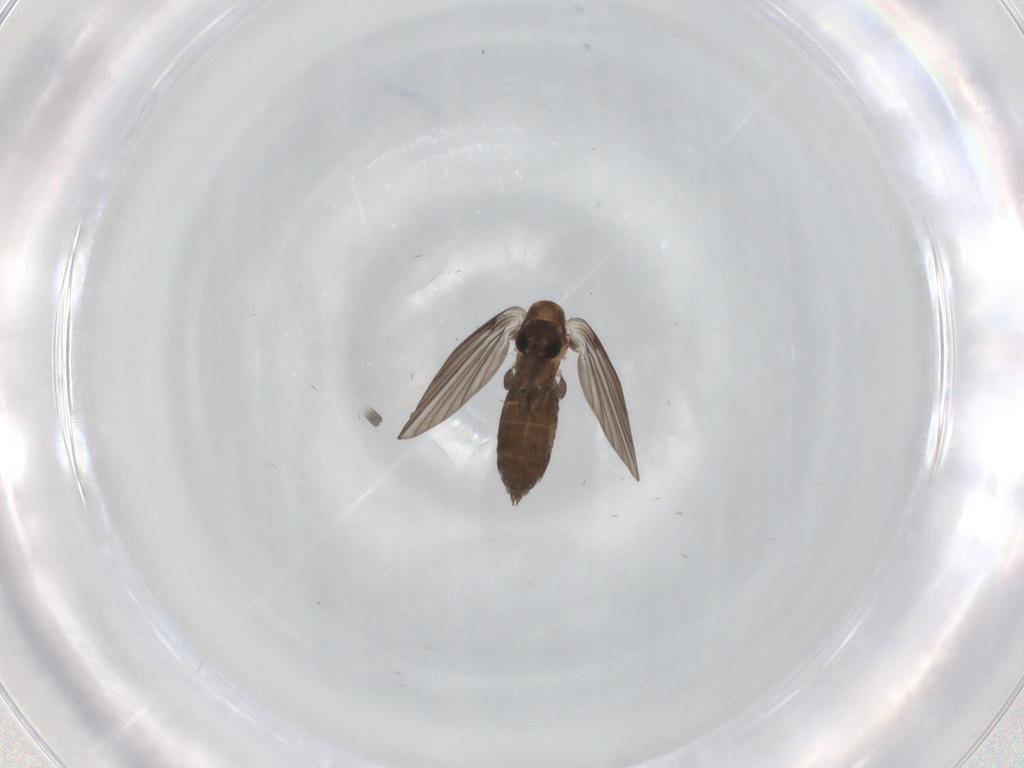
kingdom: Animalia
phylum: Arthropoda
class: Insecta
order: Diptera
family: Psychodidae
